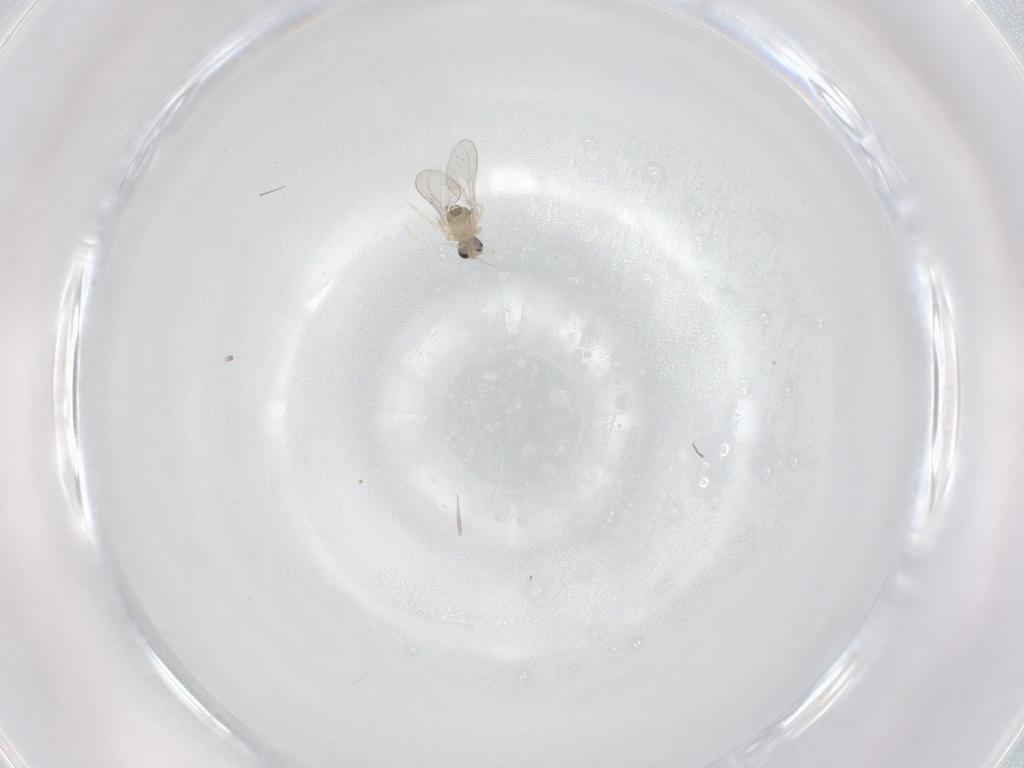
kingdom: Animalia
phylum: Arthropoda
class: Insecta
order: Diptera
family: Cecidomyiidae
